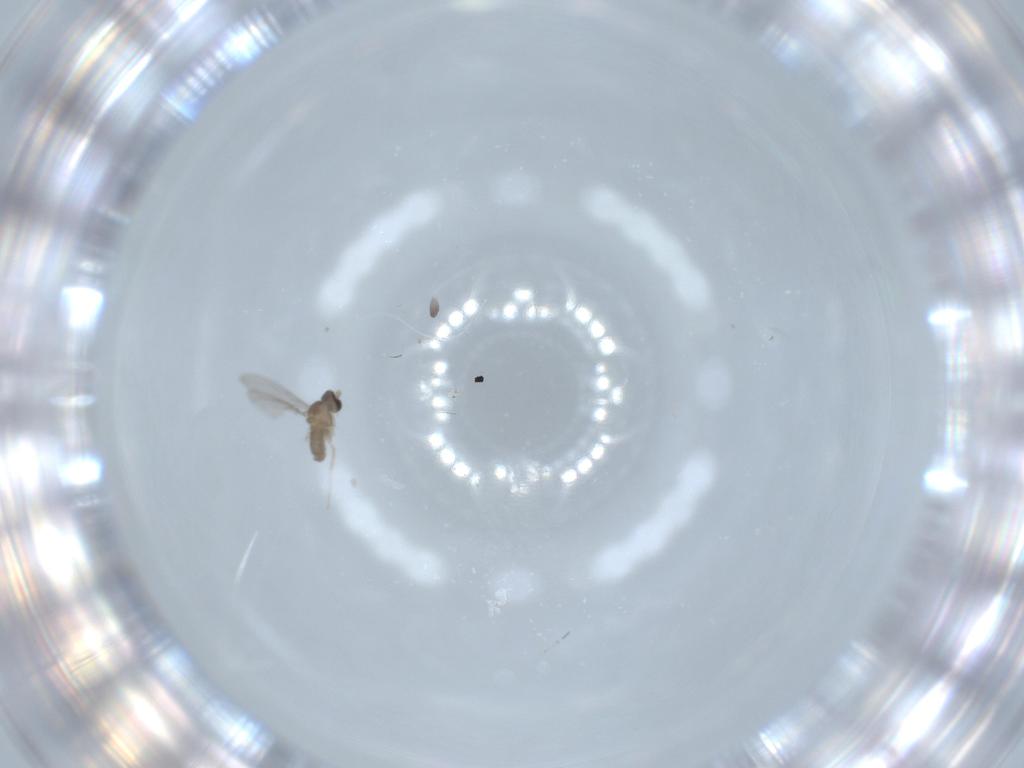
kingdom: Animalia
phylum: Arthropoda
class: Insecta
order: Diptera
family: Cecidomyiidae
